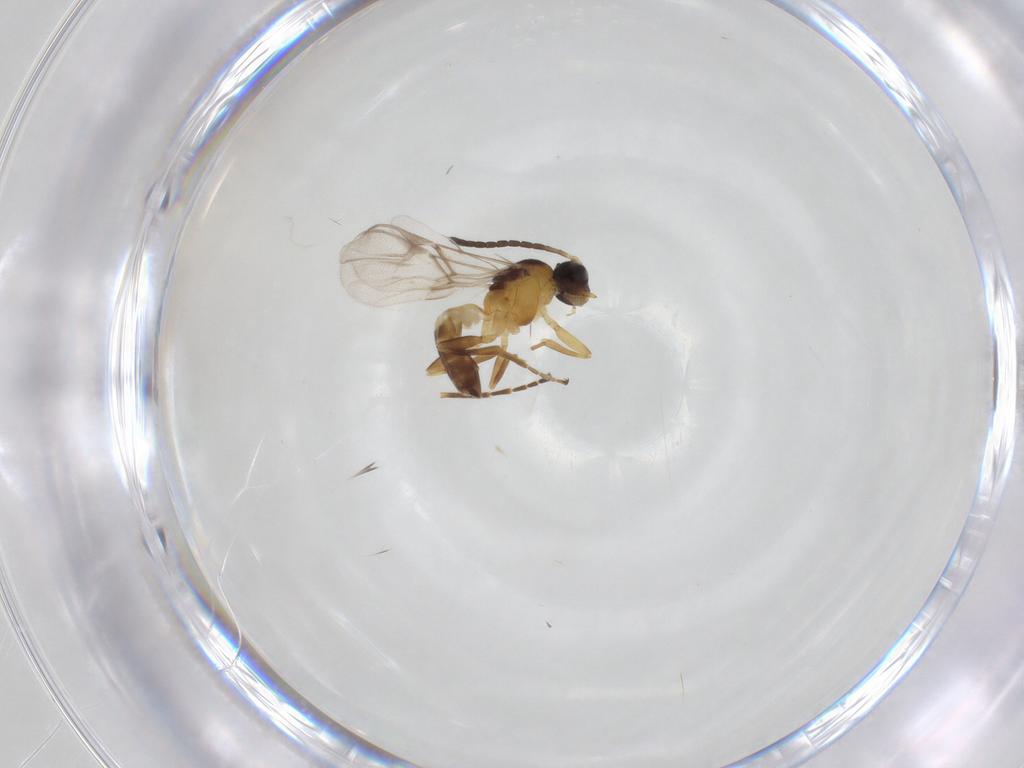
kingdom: Animalia
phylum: Arthropoda
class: Insecta
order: Hymenoptera
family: Braconidae
